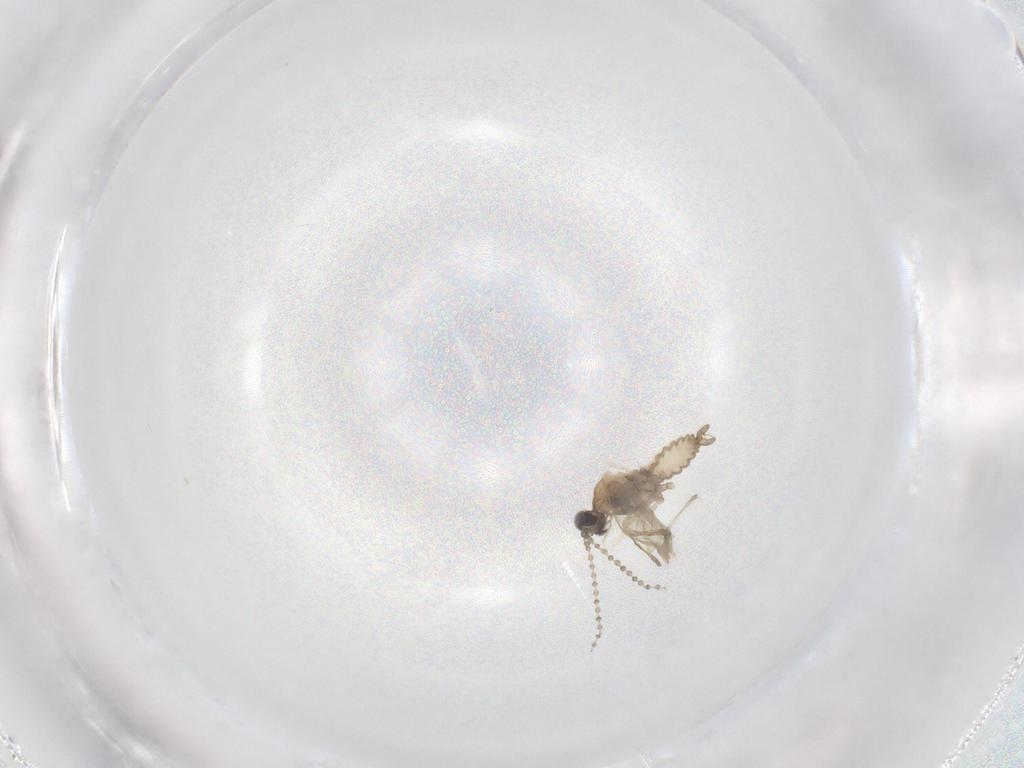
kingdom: Animalia
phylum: Arthropoda
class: Insecta
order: Diptera
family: Cecidomyiidae
